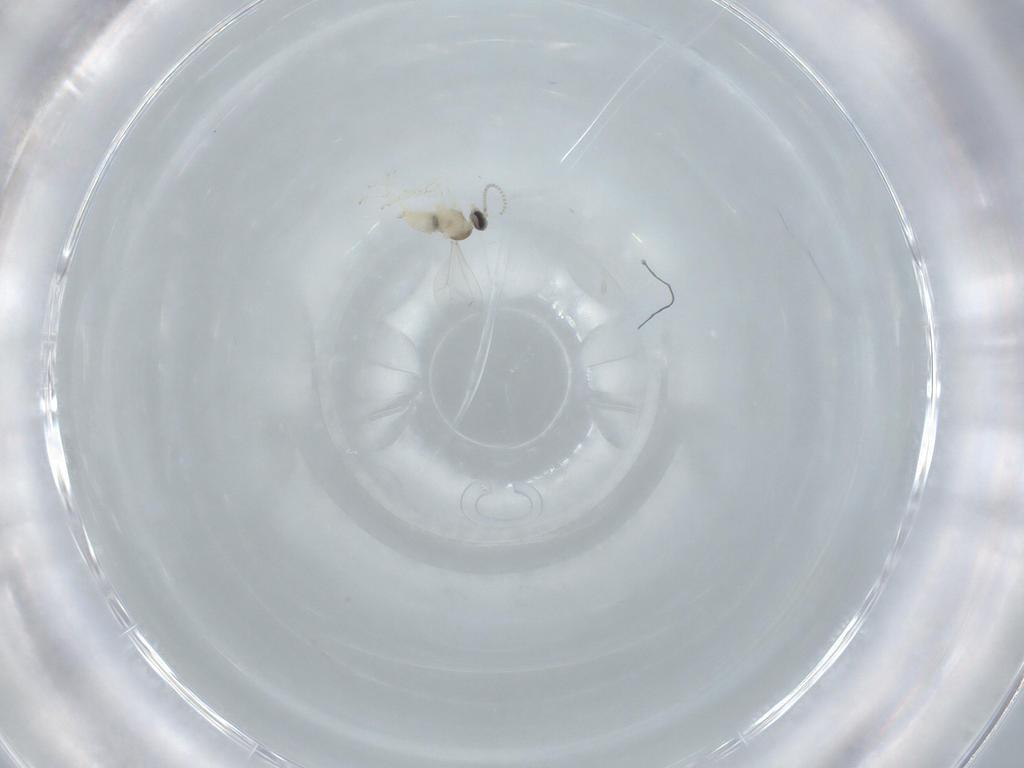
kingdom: Animalia
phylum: Arthropoda
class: Insecta
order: Diptera
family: Cecidomyiidae
